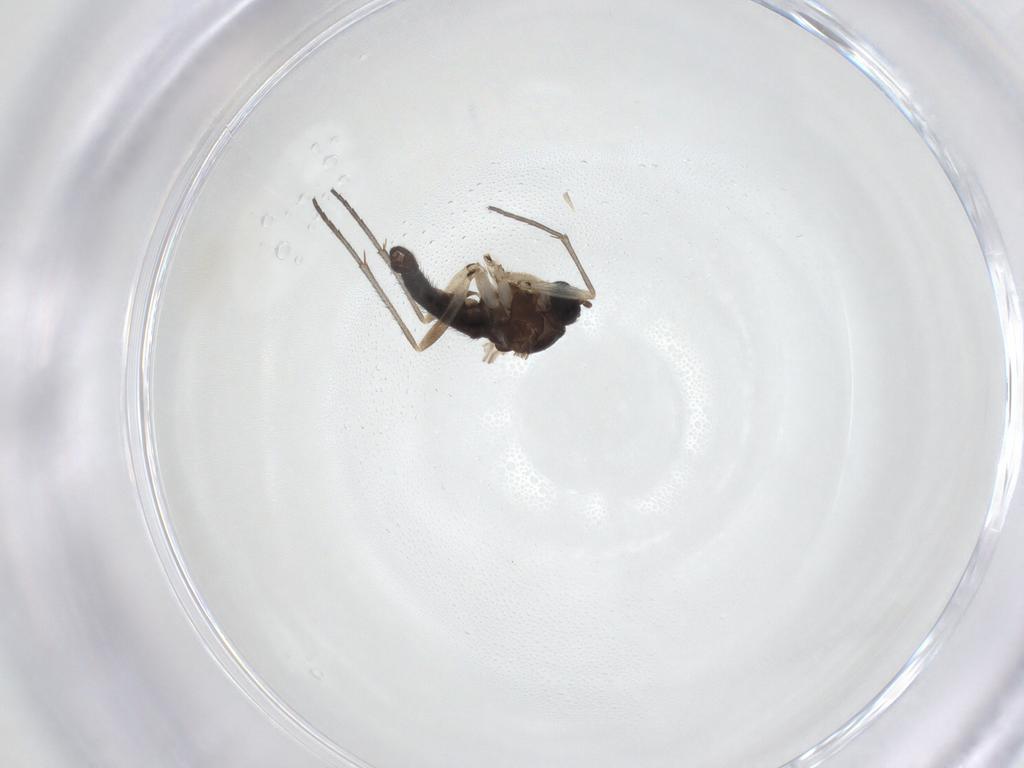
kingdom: Animalia
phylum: Arthropoda
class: Insecta
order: Diptera
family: Sciaridae
